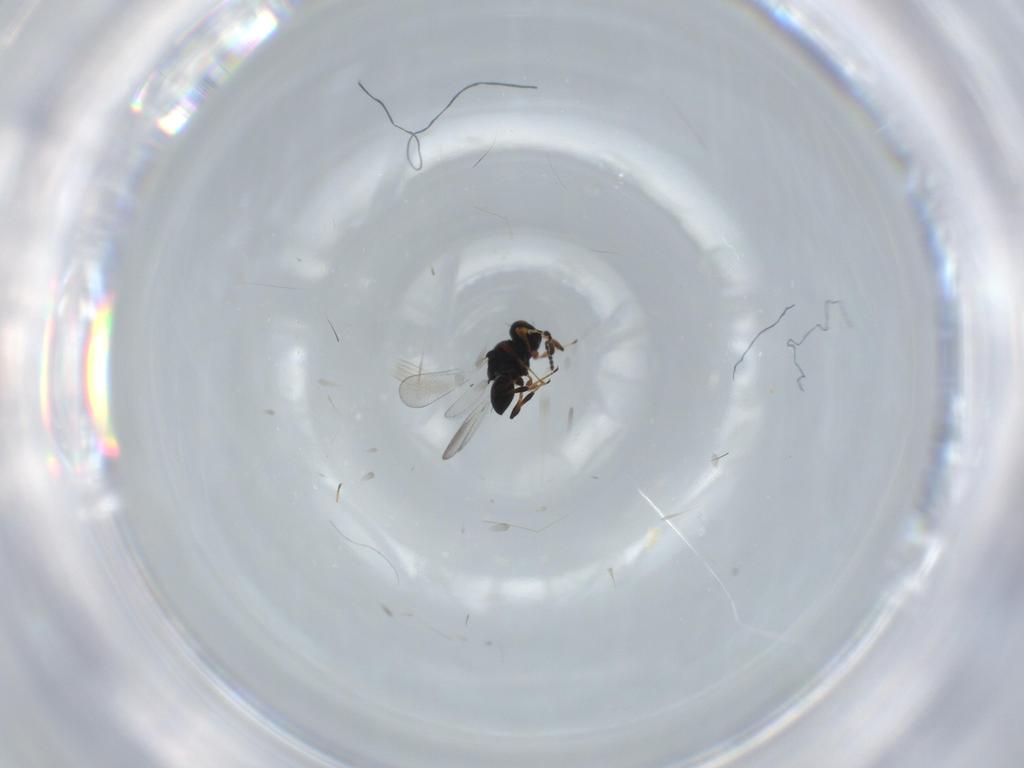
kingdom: Animalia
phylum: Arthropoda
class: Insecta
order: Hymenoptera
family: Platygastridae
